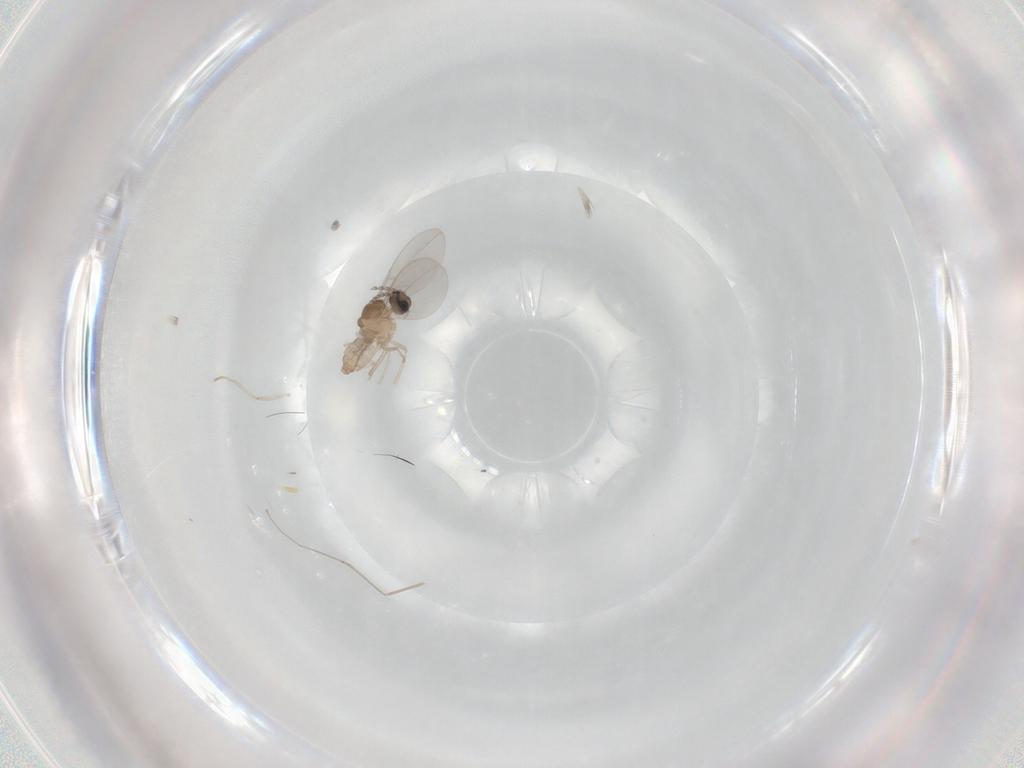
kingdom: Animalia
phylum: Arthropoda
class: Insecta
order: Diptera
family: Cecidomyiidae
